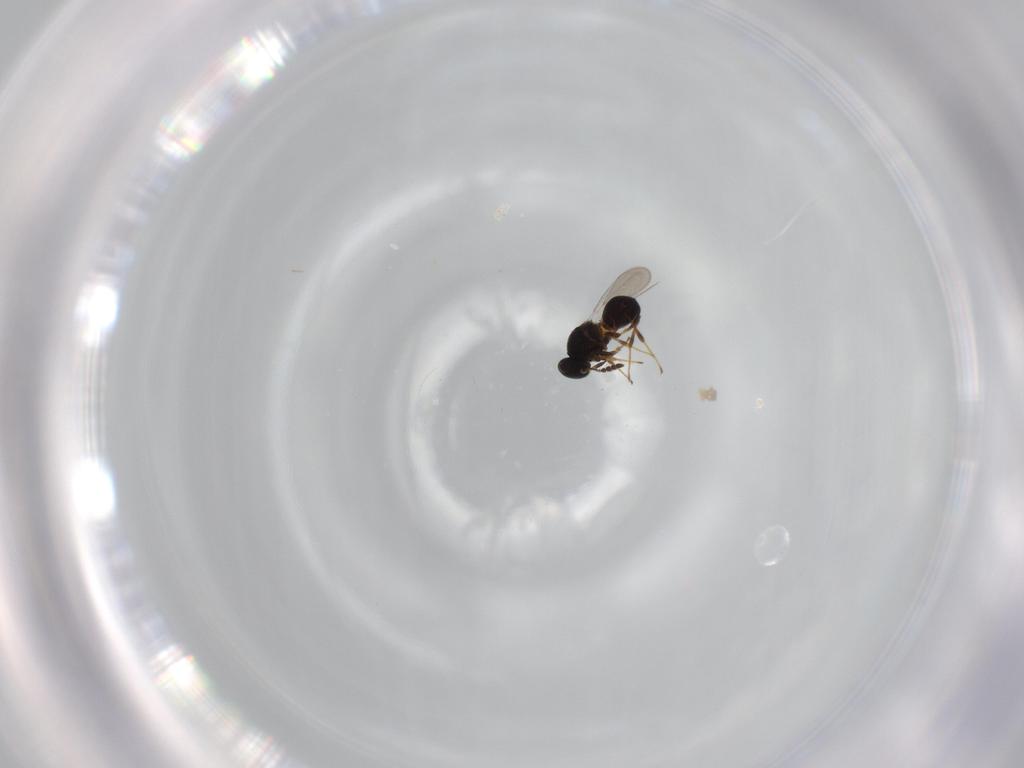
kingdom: Animalia
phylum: Arthropoda
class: Insecta
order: Hymenoptera
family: Platygastridae
